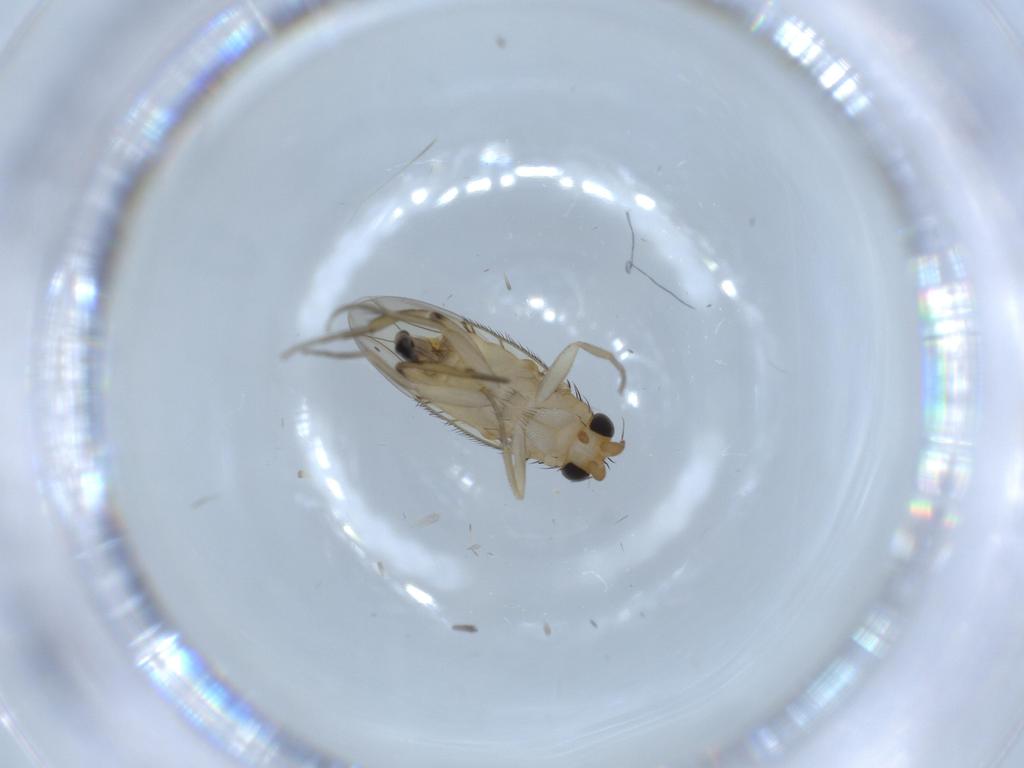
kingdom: Animalia
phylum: Arthropoda
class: Insecta
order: Diptera
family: Phoridae
